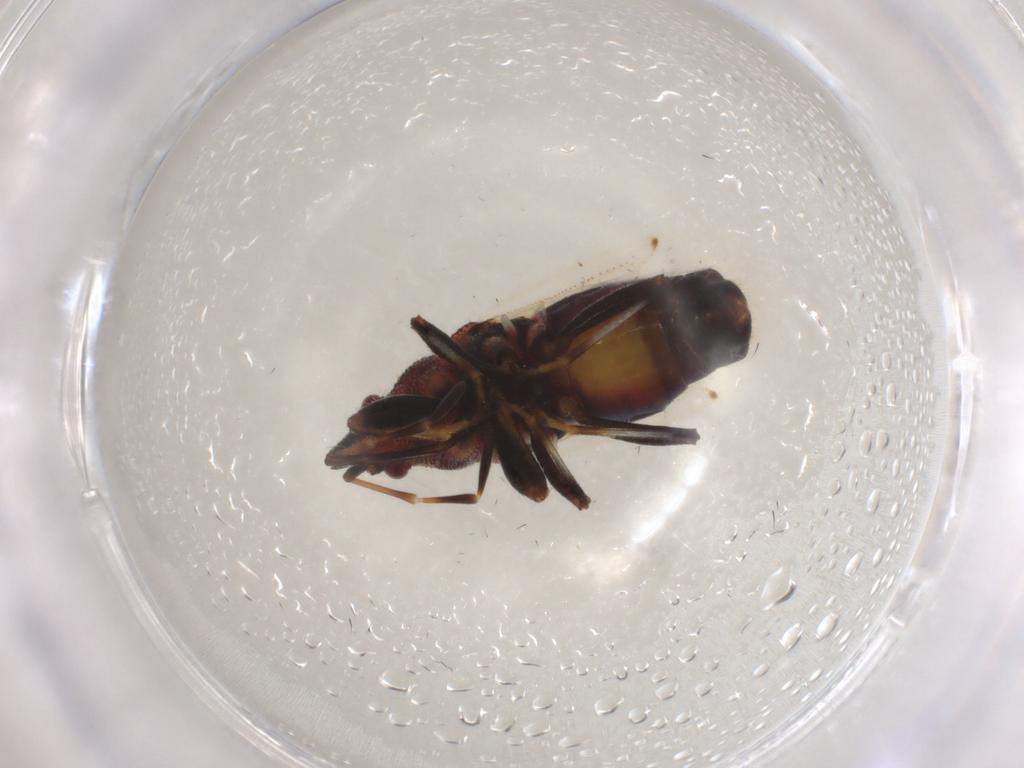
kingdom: Animalia
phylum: Arthropoda
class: Insecta
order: Hemiptera
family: Oxycarenidae
